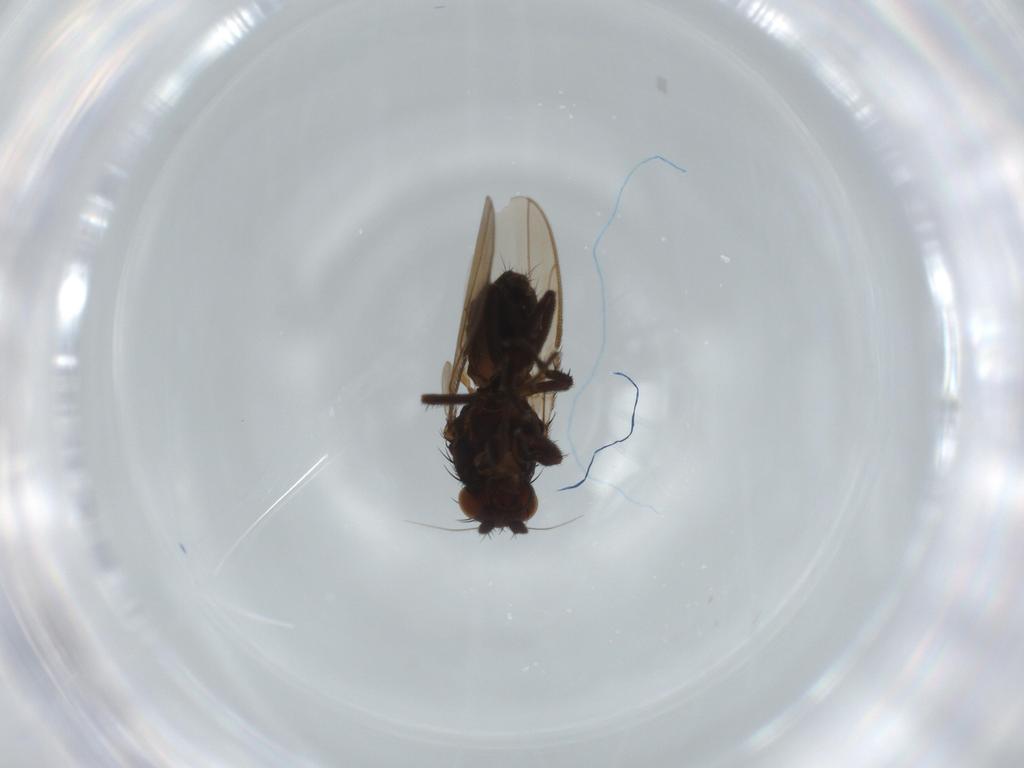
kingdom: Animalia
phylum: Arthropoda
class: Insecta
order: Diptera
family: Sphaeroceridae
